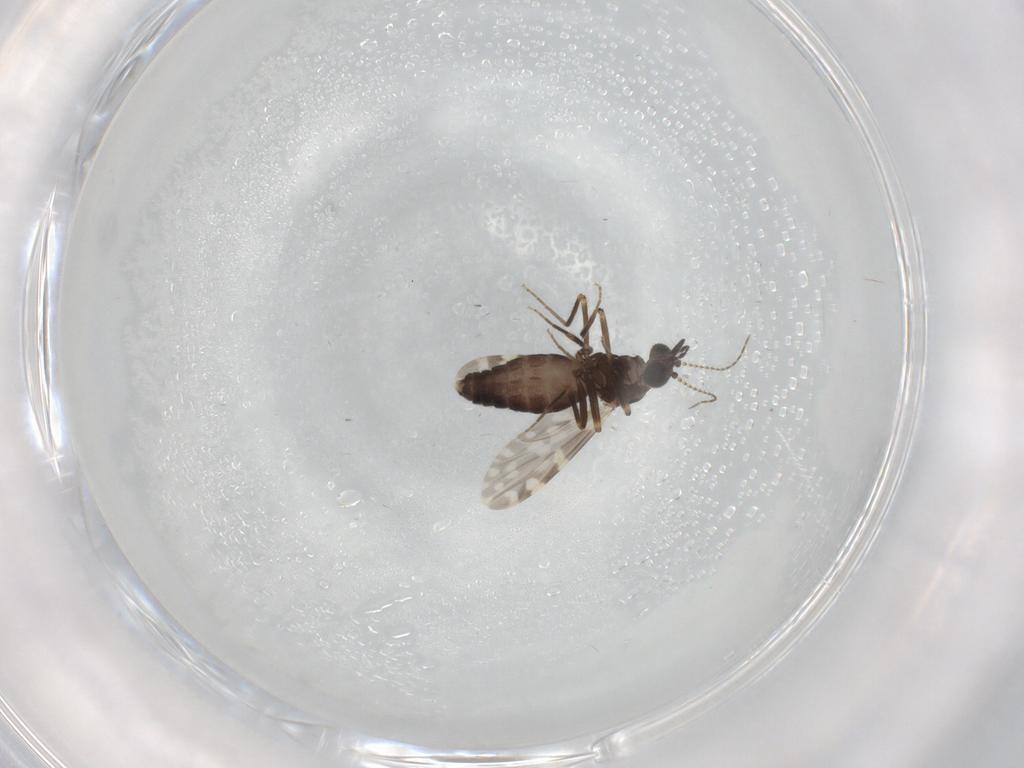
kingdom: Animalia
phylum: Arthropoda
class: Insecta
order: Diptera
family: Ceratopogonidae
